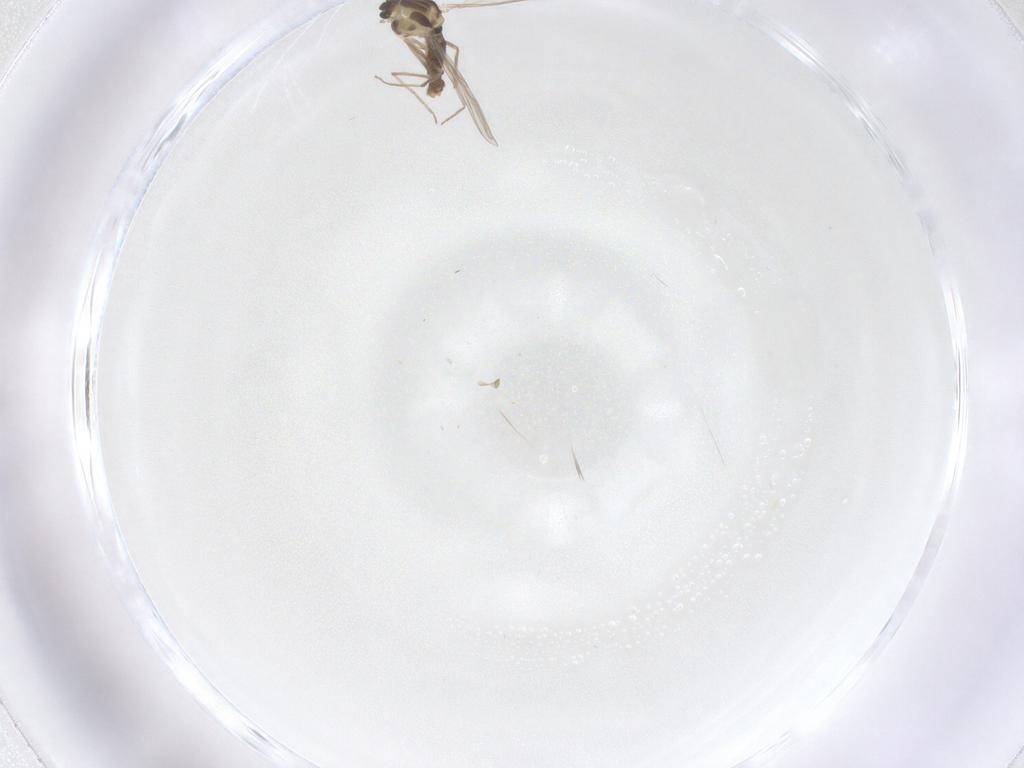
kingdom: Animalia
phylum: Arthropoda
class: Insecta
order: Diptera
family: Chironomidae
